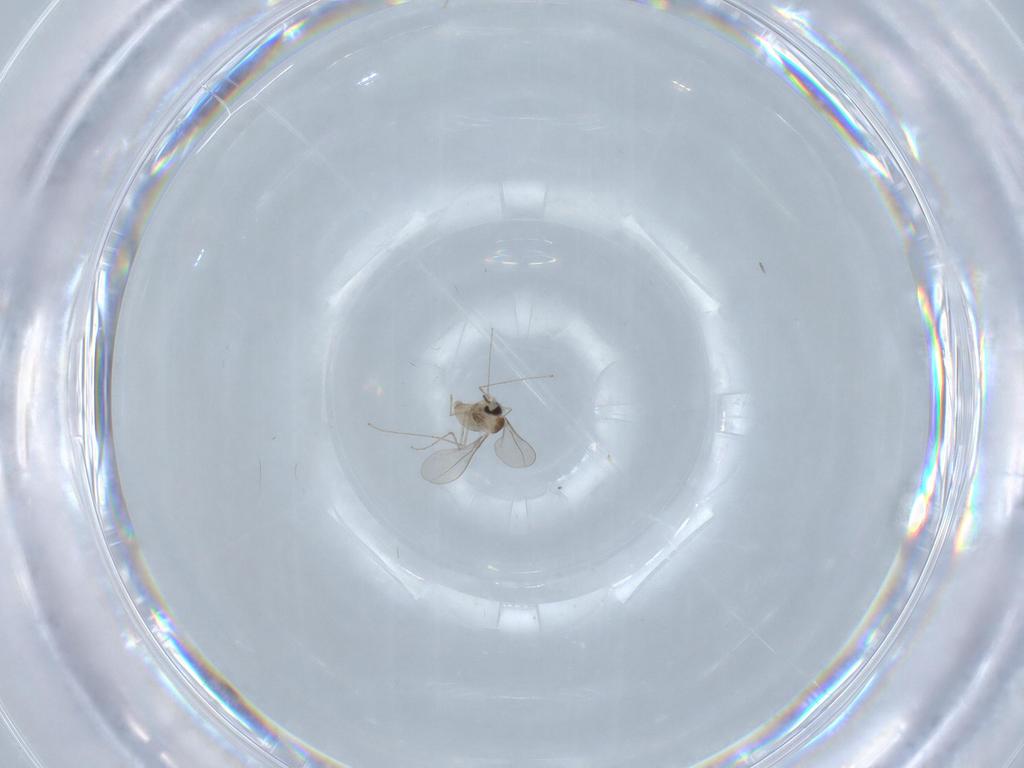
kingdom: Animalia
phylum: Arthropoda
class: Insecta
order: Diptera
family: Cecidomyiidae
